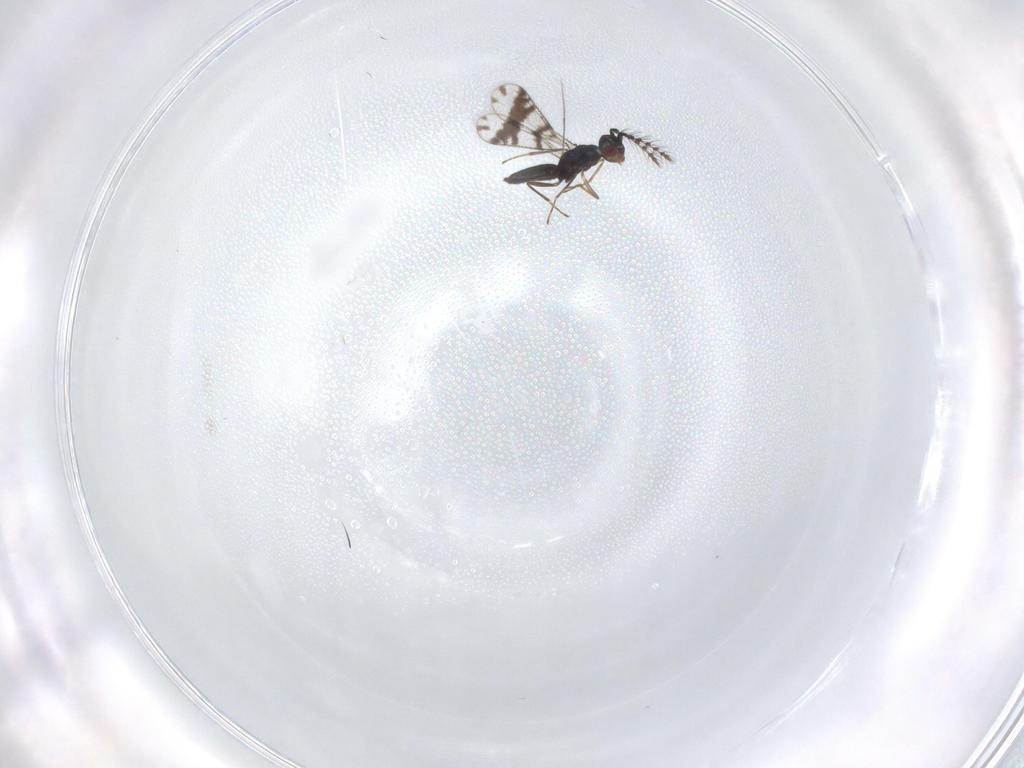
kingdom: Animalia
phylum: Arthropoda
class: Insecta
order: Hymenoptera
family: Eulophidae
